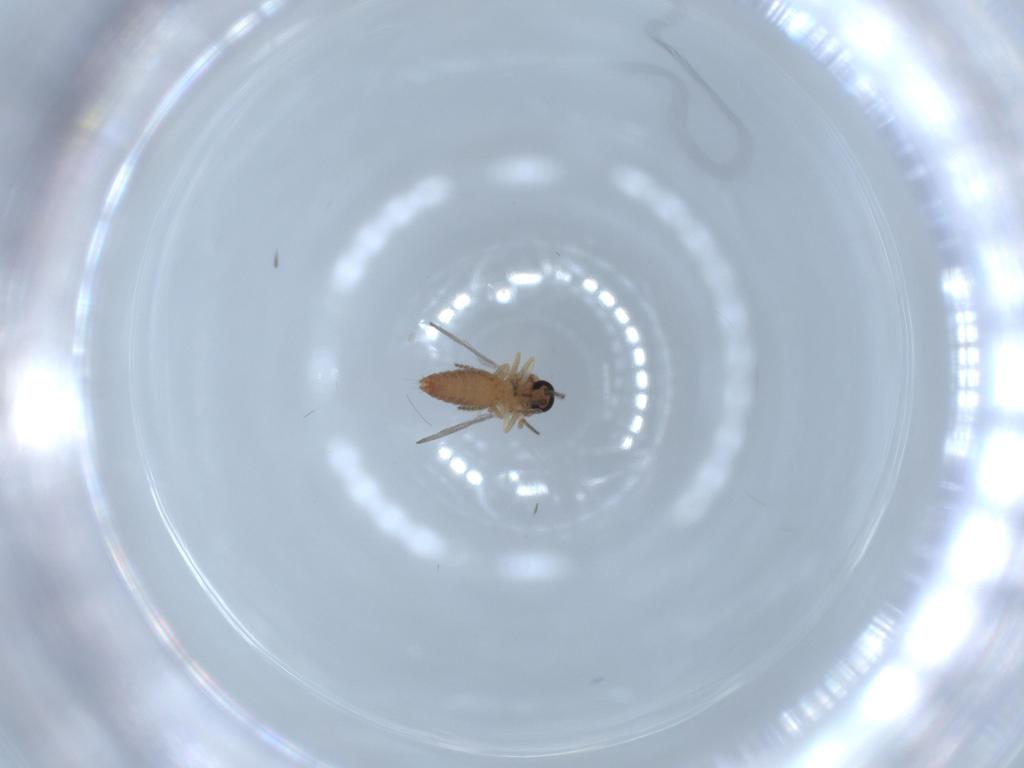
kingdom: Animalia
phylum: Arthropoda
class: Insecta
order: Diptera
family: Ceratopogonidae
